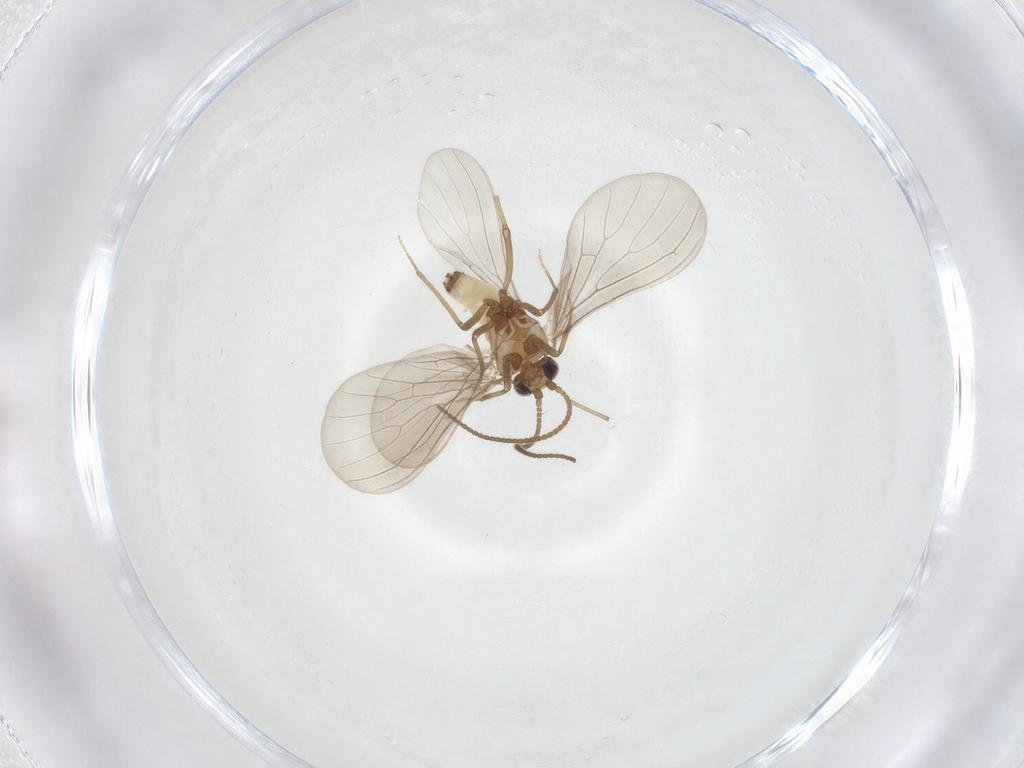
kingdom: Animalia
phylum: Arthropoda
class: Insecta
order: Neuroptera
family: Coniopterygidae
